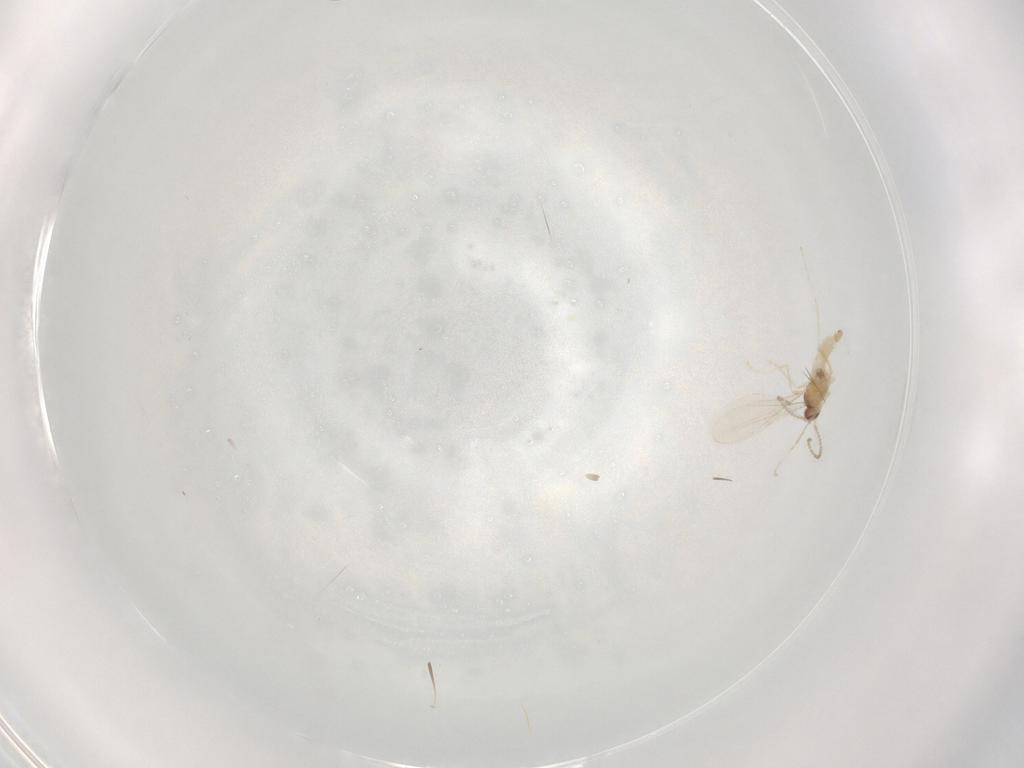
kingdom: Animalia
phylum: Arthropoda
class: Insecta
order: Diptera
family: Cecidomyiidae
